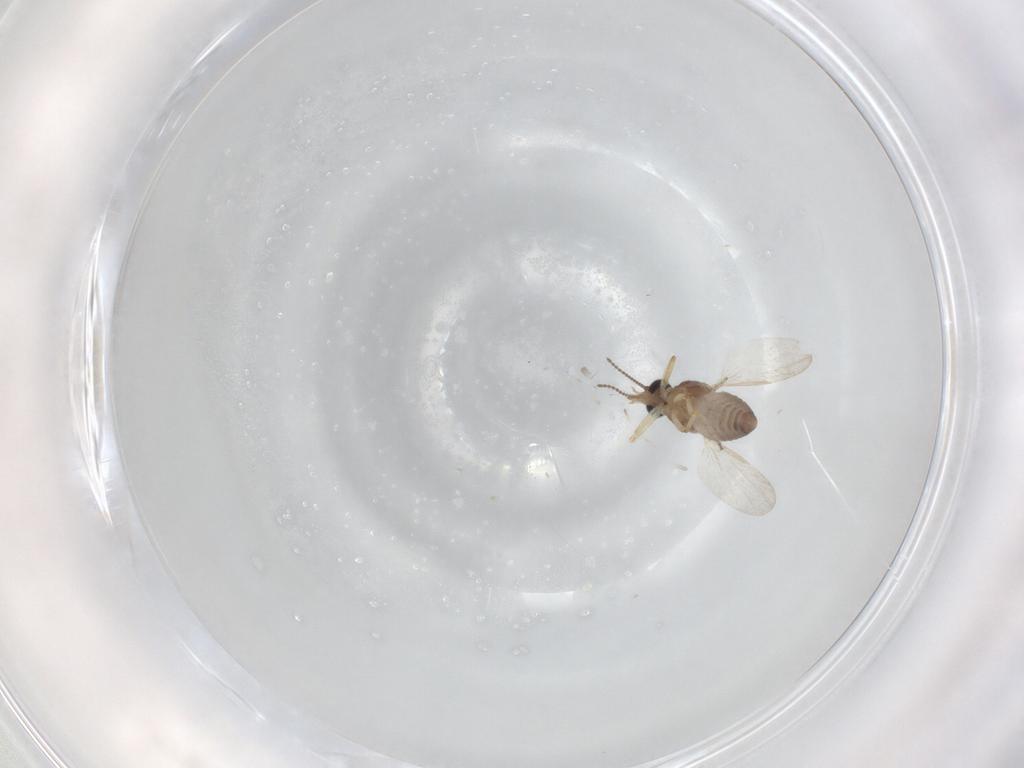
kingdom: Animalia
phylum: Arthropoda
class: Insecta
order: Diptera
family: Ceratopogonidae
